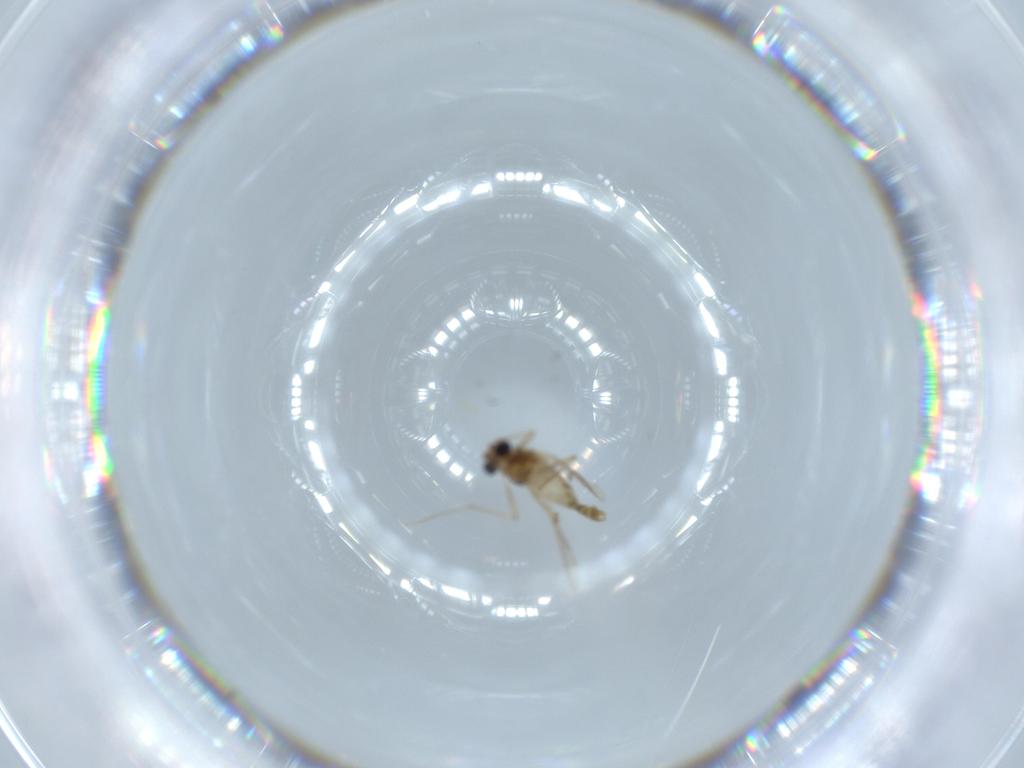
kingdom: Animalia
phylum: Arthropoda
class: Insecta
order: Diptera
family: Chironomidae
